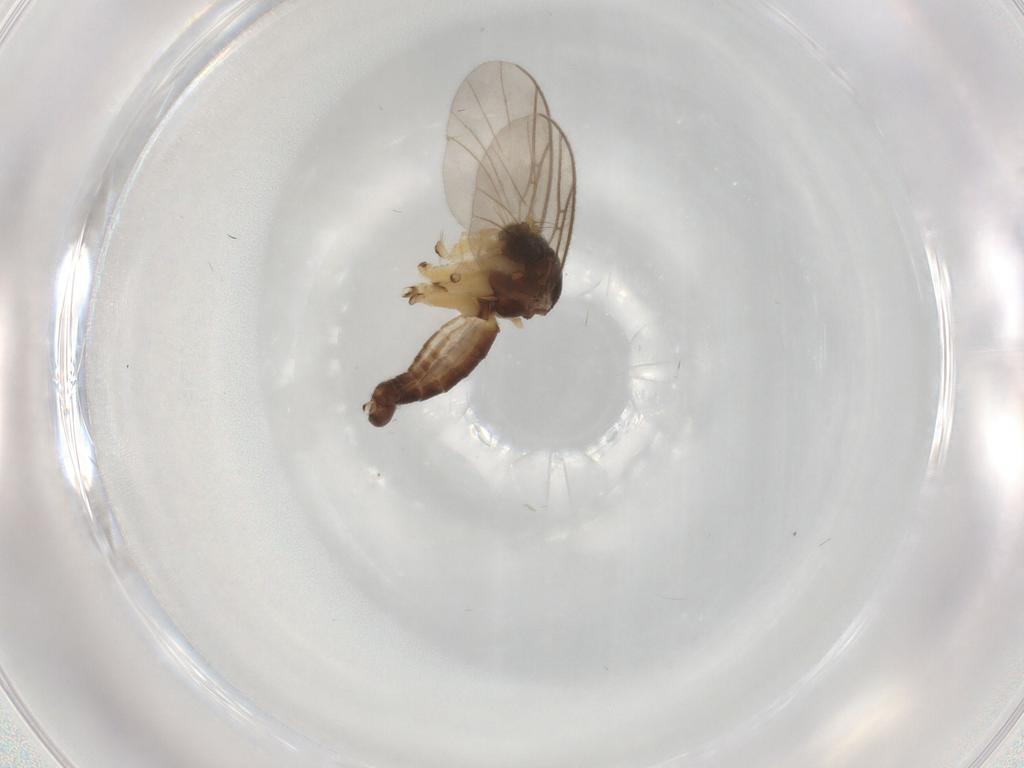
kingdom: Animalia
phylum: Arthropoda
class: Insecta
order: Diptera
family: Mycetophilidae
